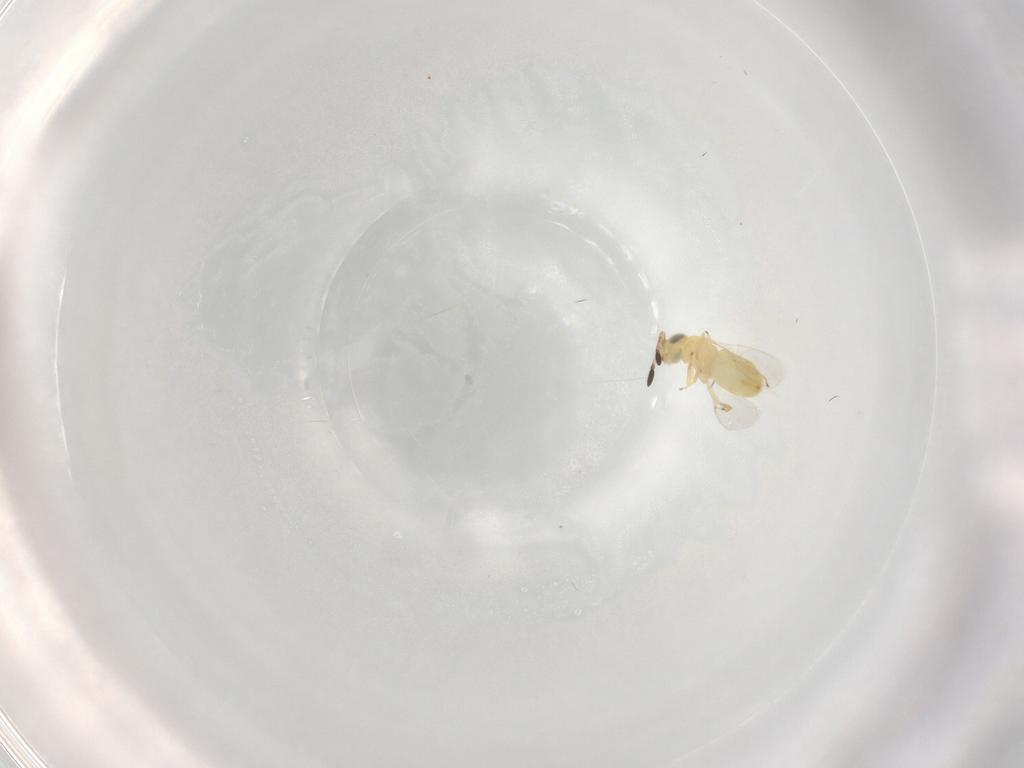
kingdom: Animalia
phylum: Arthropoda
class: Insecta
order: Hymenoptera
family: Encyrtidae
